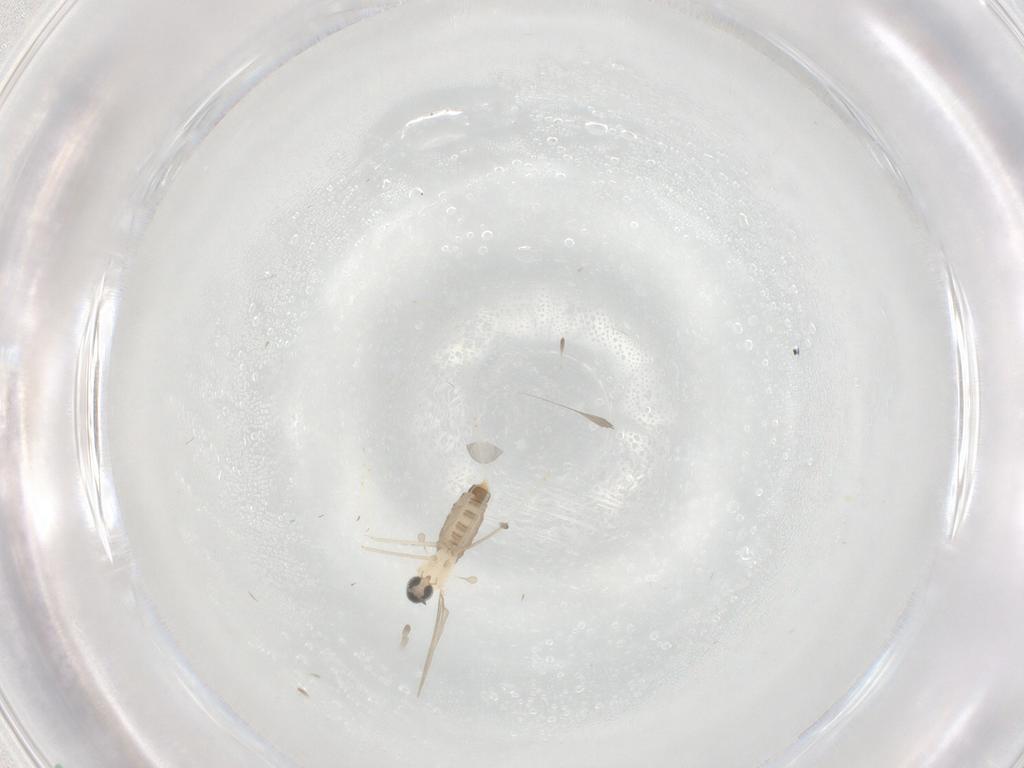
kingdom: Animalia
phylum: Arthropoda
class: Insecta
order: Diptera
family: Cecidomyiidae
